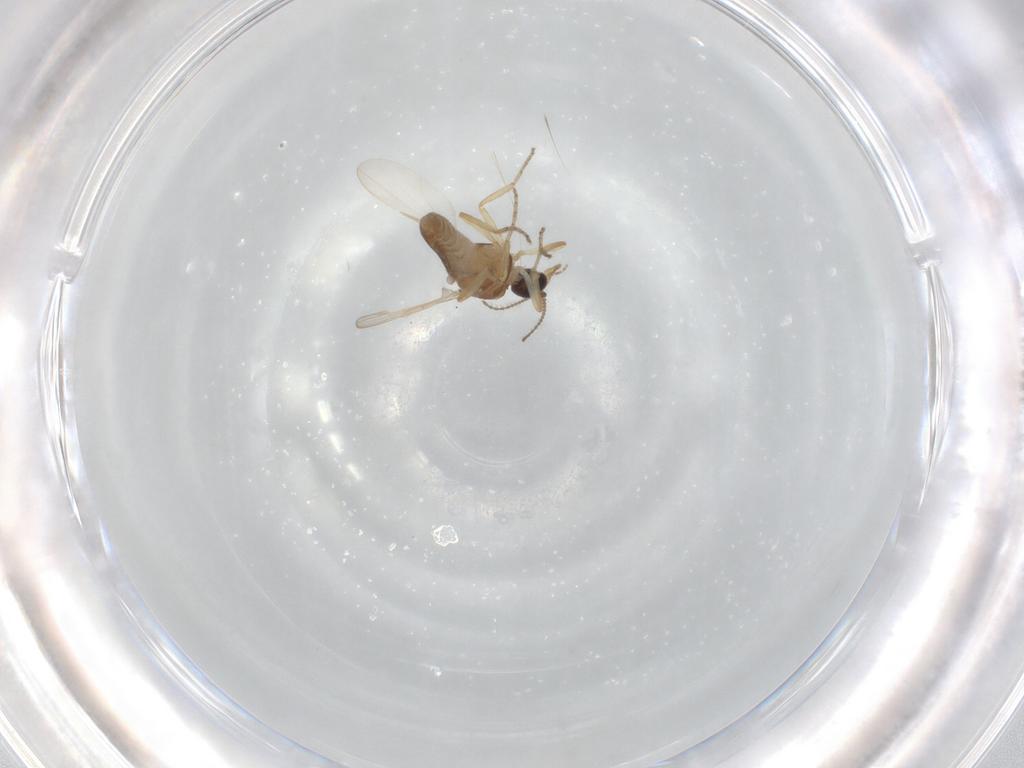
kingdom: Animalia
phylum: Arthropoda
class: Insecta
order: Diptera
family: Ceratopogonidae
